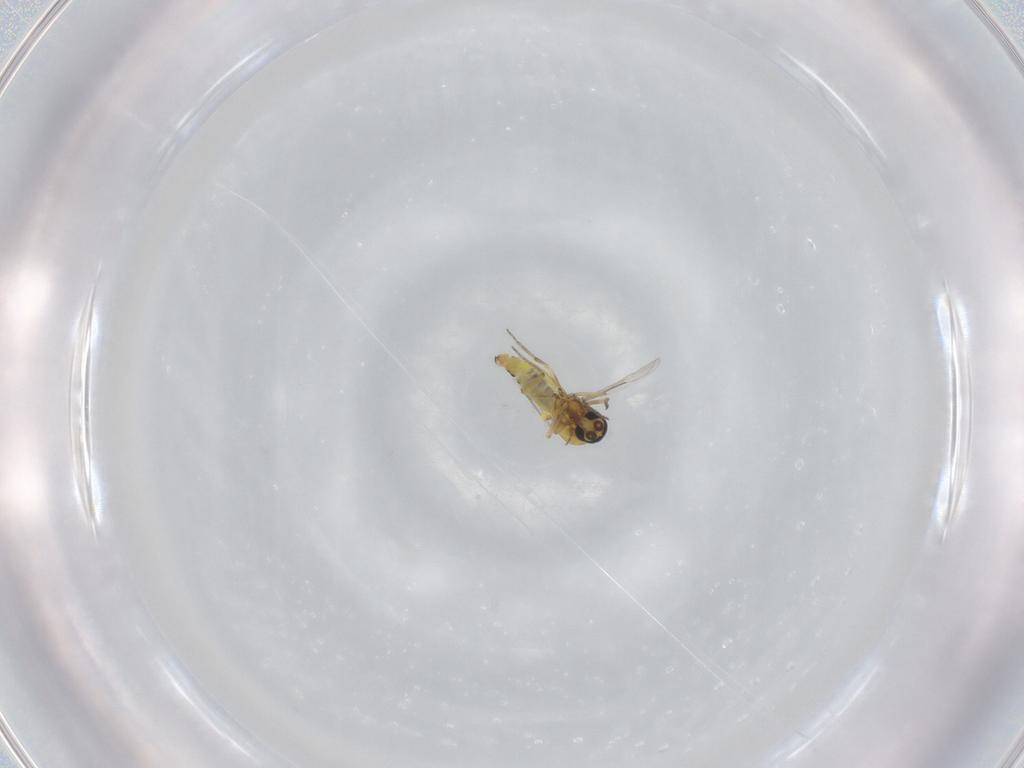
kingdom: Animalia
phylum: Arthropoda
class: Insecta
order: Diptera
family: Ceratopogonidae
